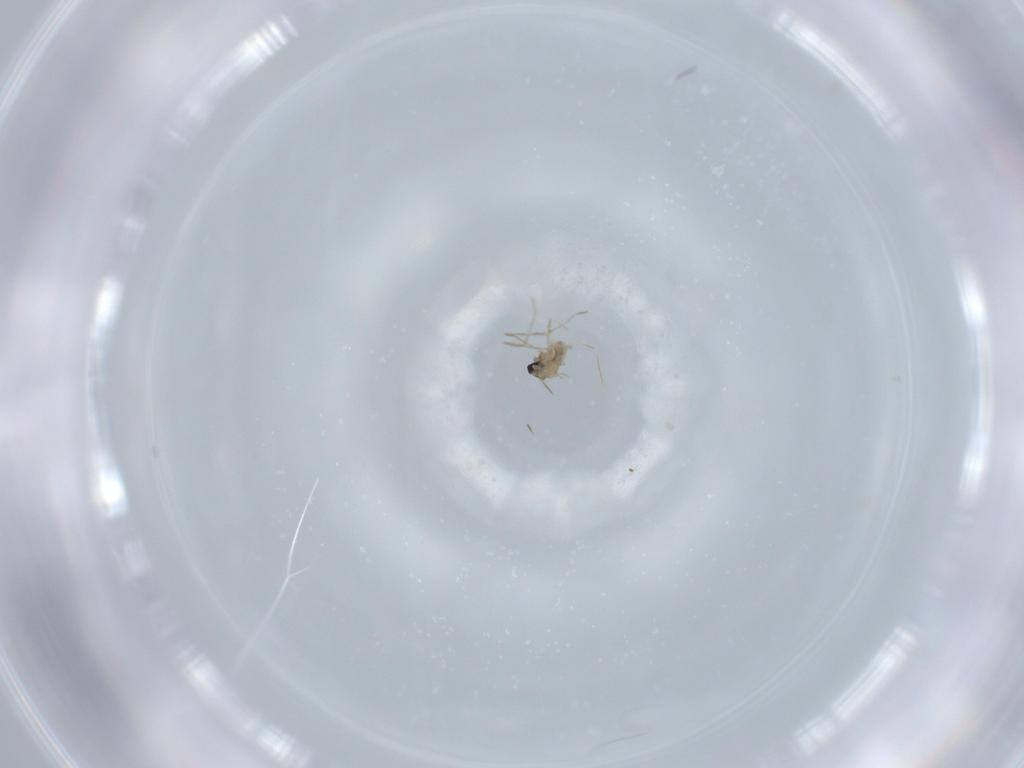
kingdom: Animalia
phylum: Arthropoda
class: Insecta
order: Diptera
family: Cecidomyiidae
